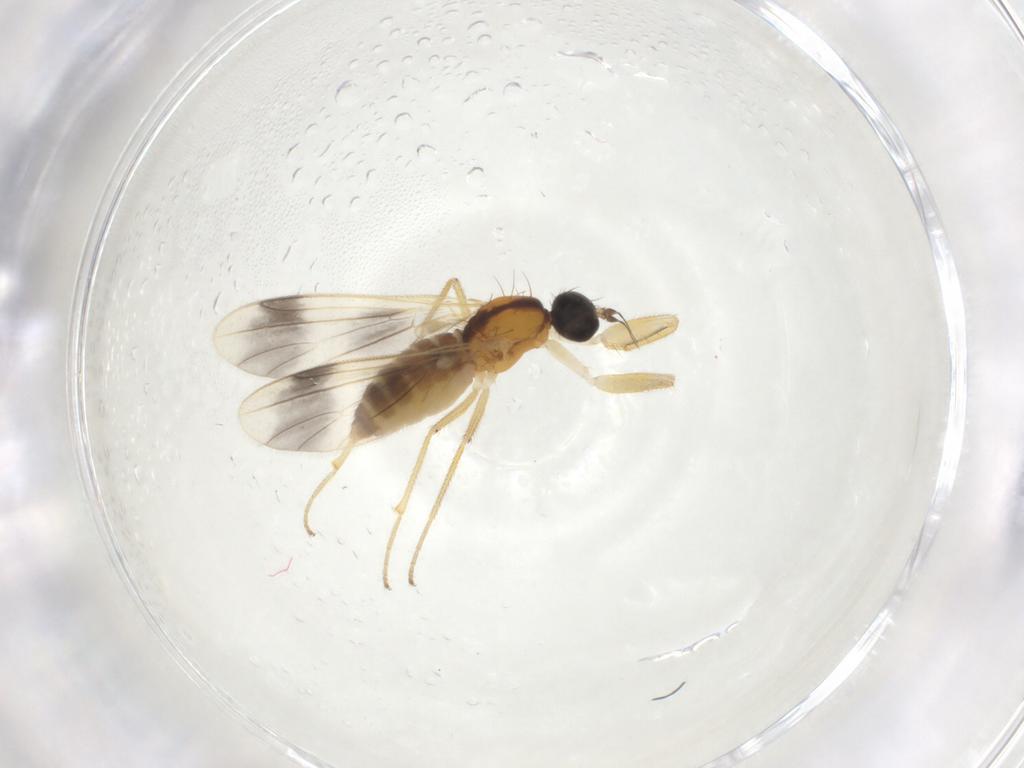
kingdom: Animalia
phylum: Arthropoda
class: Insecta
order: Diptera
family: Empididae
